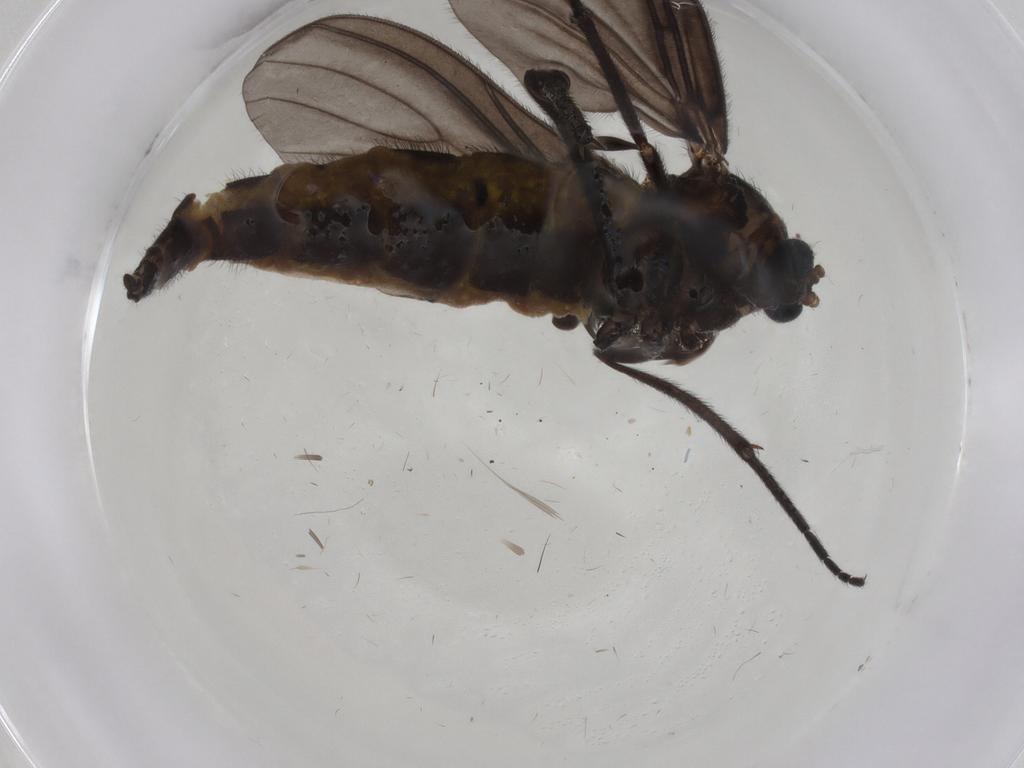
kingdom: Animalia
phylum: Arthropoda
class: Insecta
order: Diptera
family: Sciaridae
